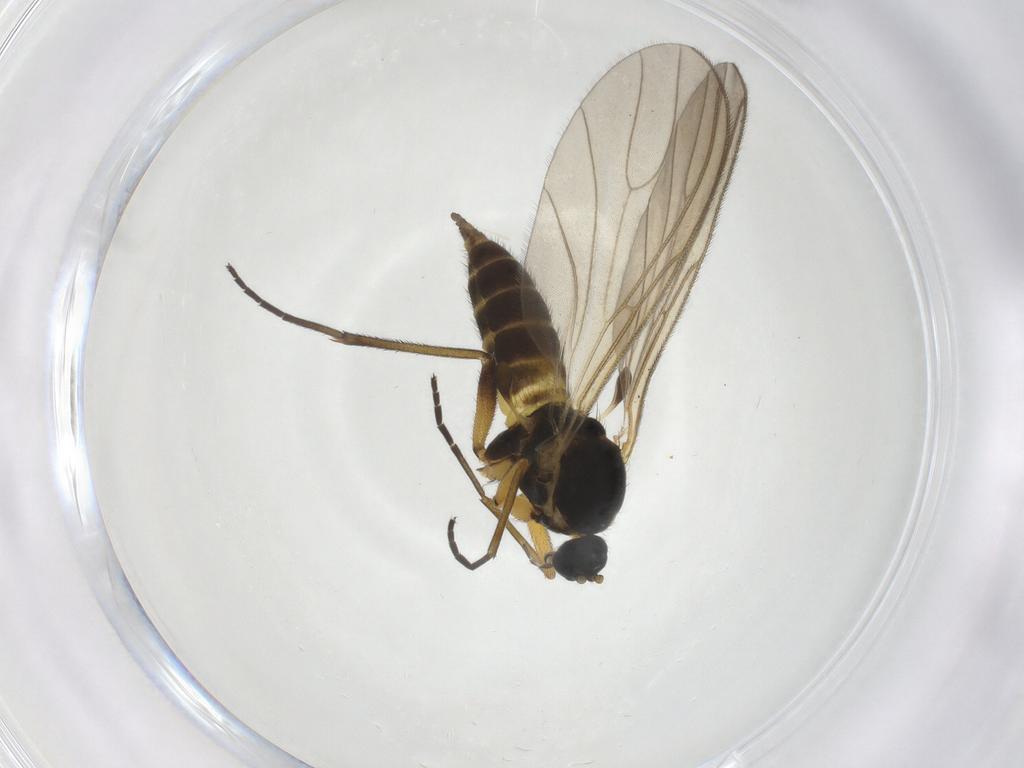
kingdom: Animalia
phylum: Arthropoda
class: Insecta
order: Diptera
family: Sciaridae
